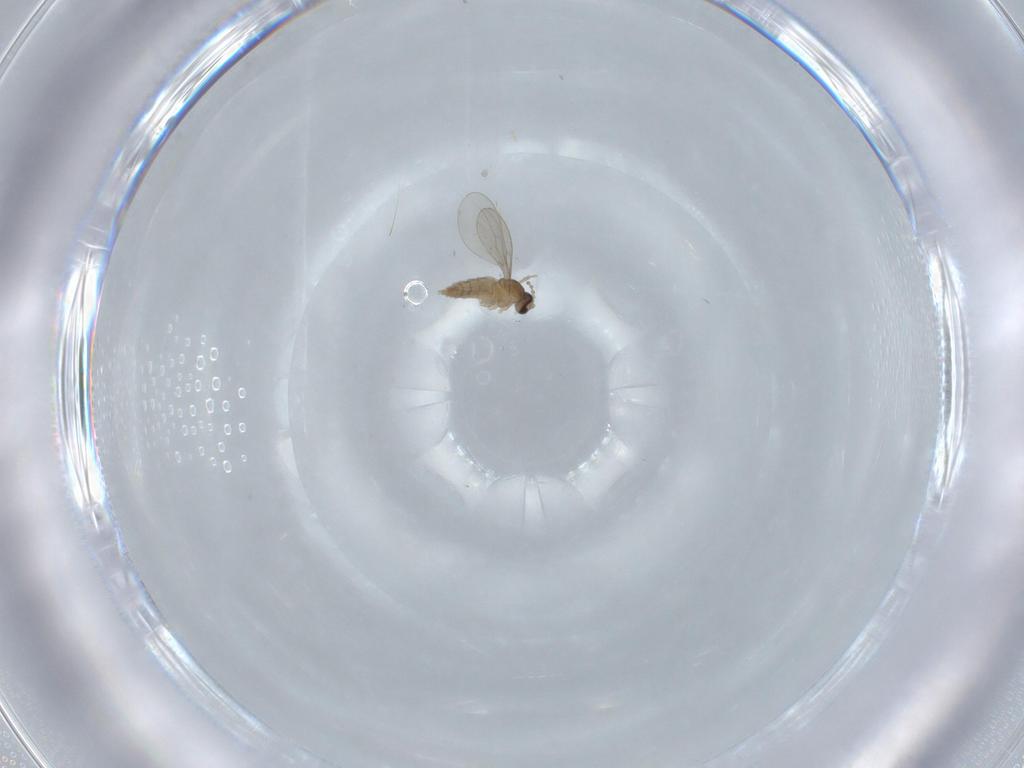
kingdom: Animalia
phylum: Arthropoda
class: Insecta
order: Diptera
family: Cecidomyiidae
